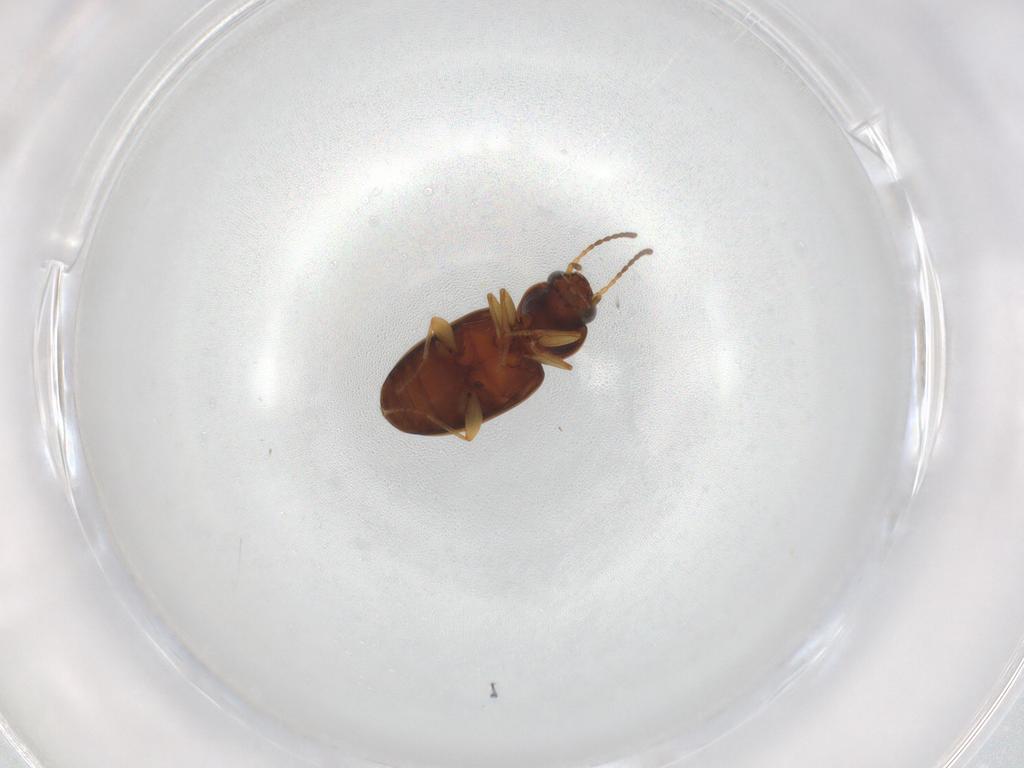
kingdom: Animalia
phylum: Arthropoda
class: Insecta
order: Coleoptera
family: Carabidae
